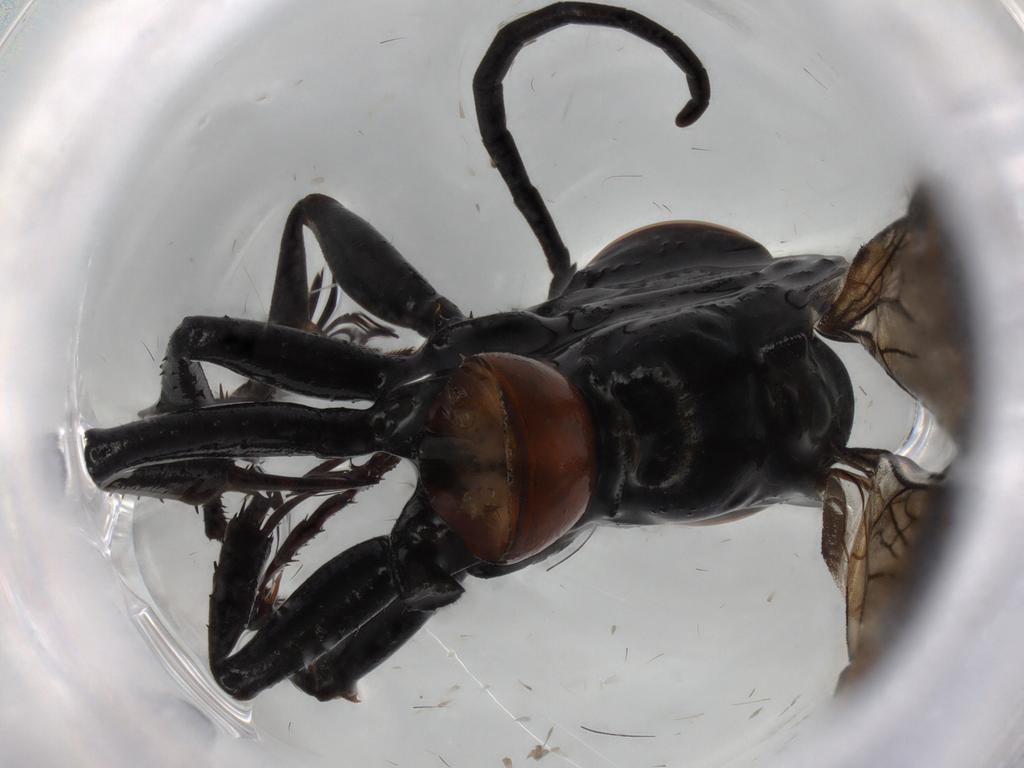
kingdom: Animalia
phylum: Arthropoda
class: Insecta
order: Hymenoptera
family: Pompilidae
